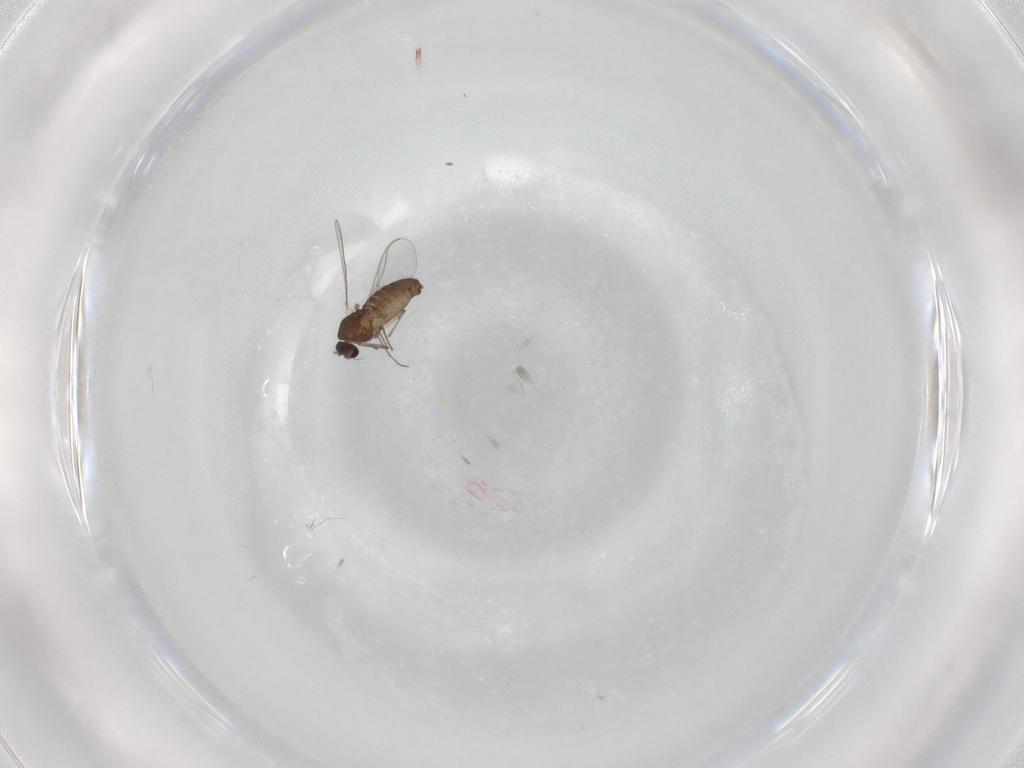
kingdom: Animalia
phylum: Arthropoda
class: Insecta
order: Diptera
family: Chironomidae
